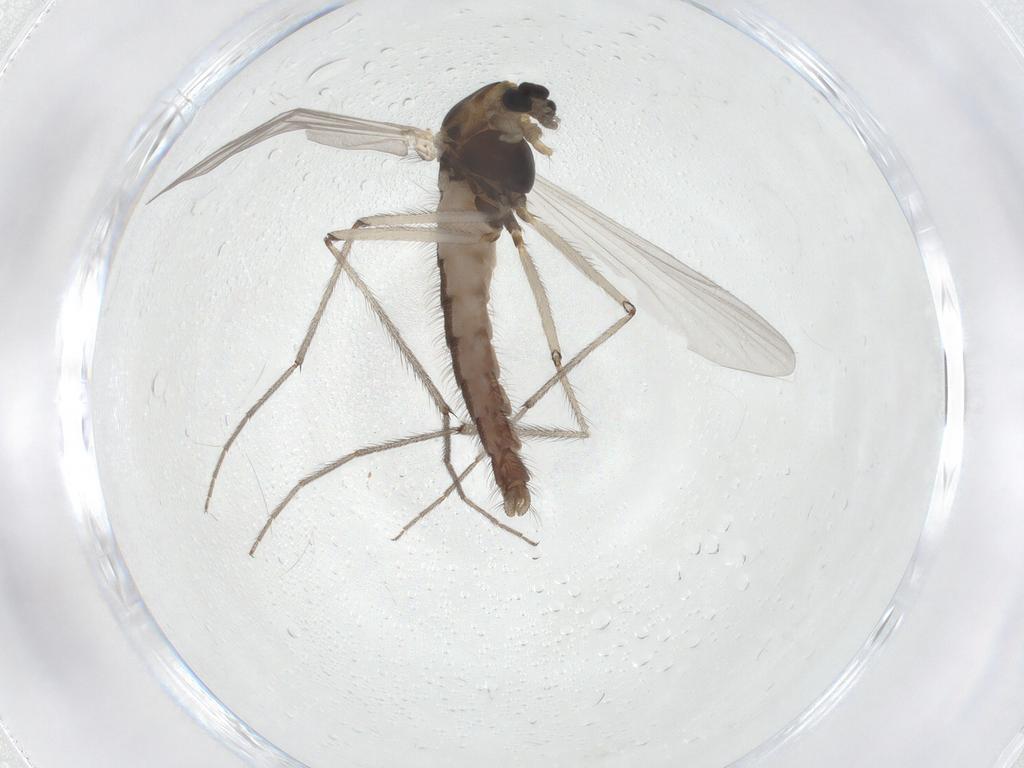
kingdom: Animalia
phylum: Arthropoda
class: Insecta
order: Diptera
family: Chironomidae
